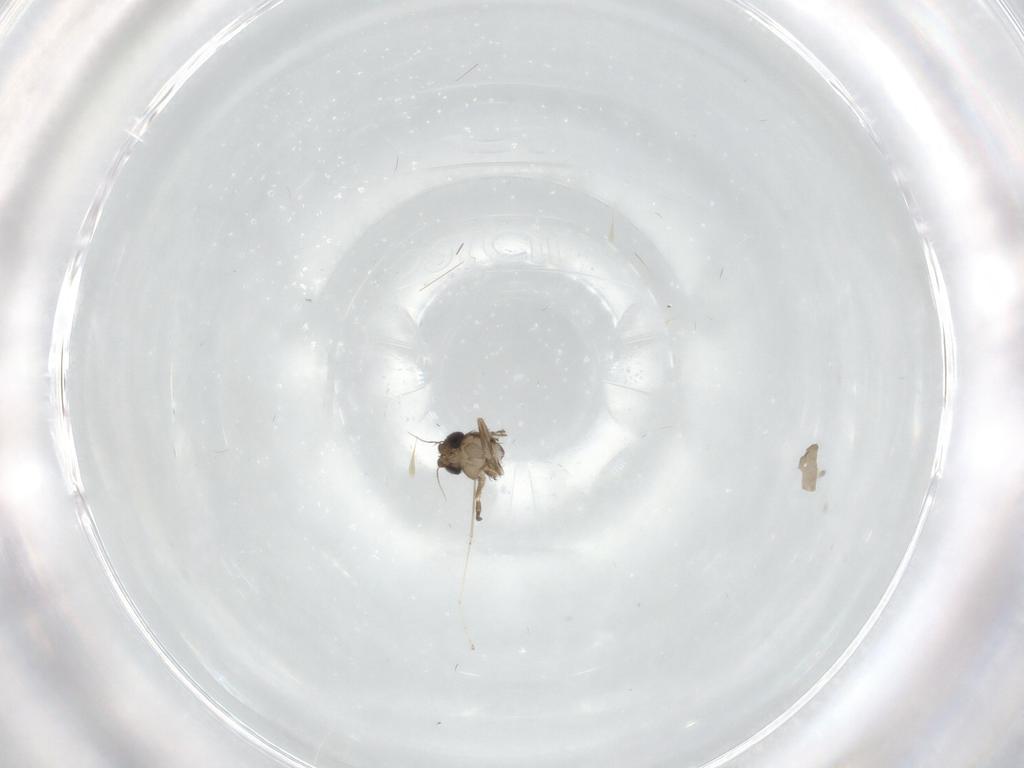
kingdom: Animalia
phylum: Arthropoda
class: Insecta
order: Diptera
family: Phoridae
